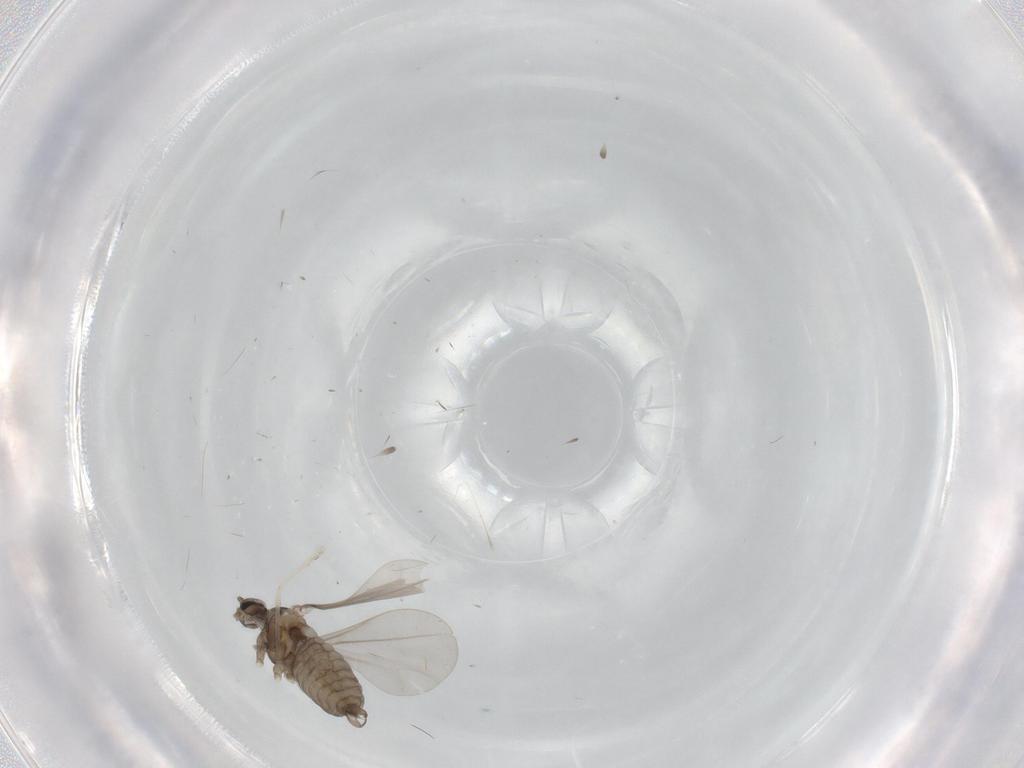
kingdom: Animalia
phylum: Arthropoda
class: Insecta
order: Diptera
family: Cecidomyiidae
